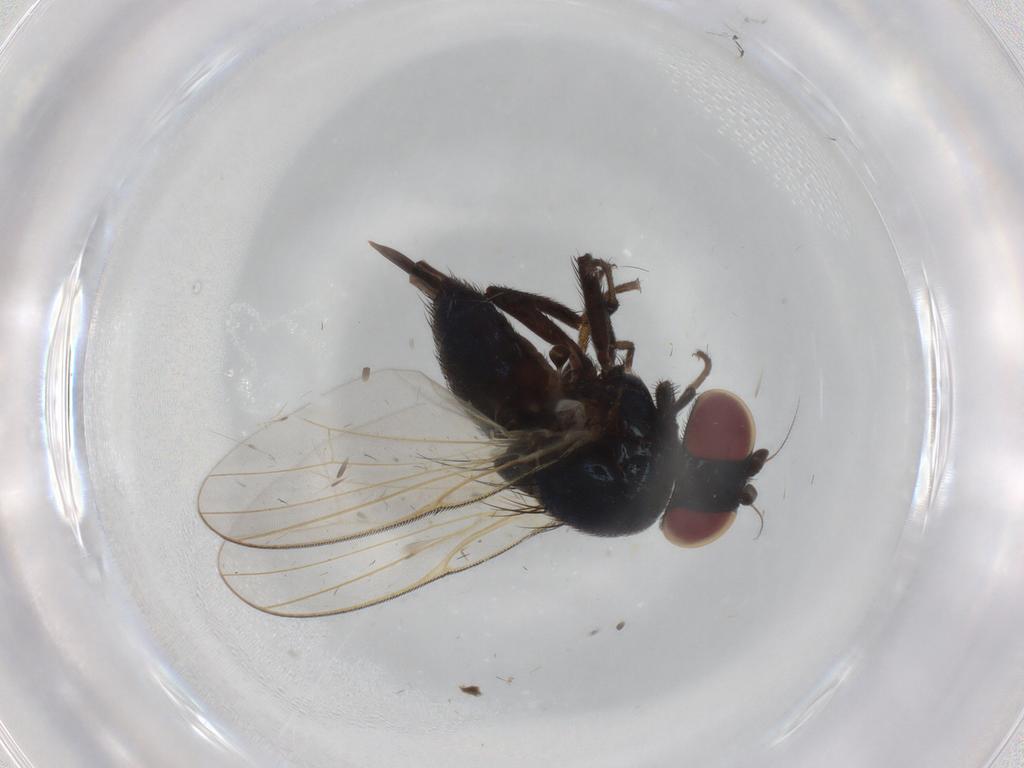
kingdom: Animalia
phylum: Arthropoda
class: Insecta
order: Diptera
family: Lonchaeidae
